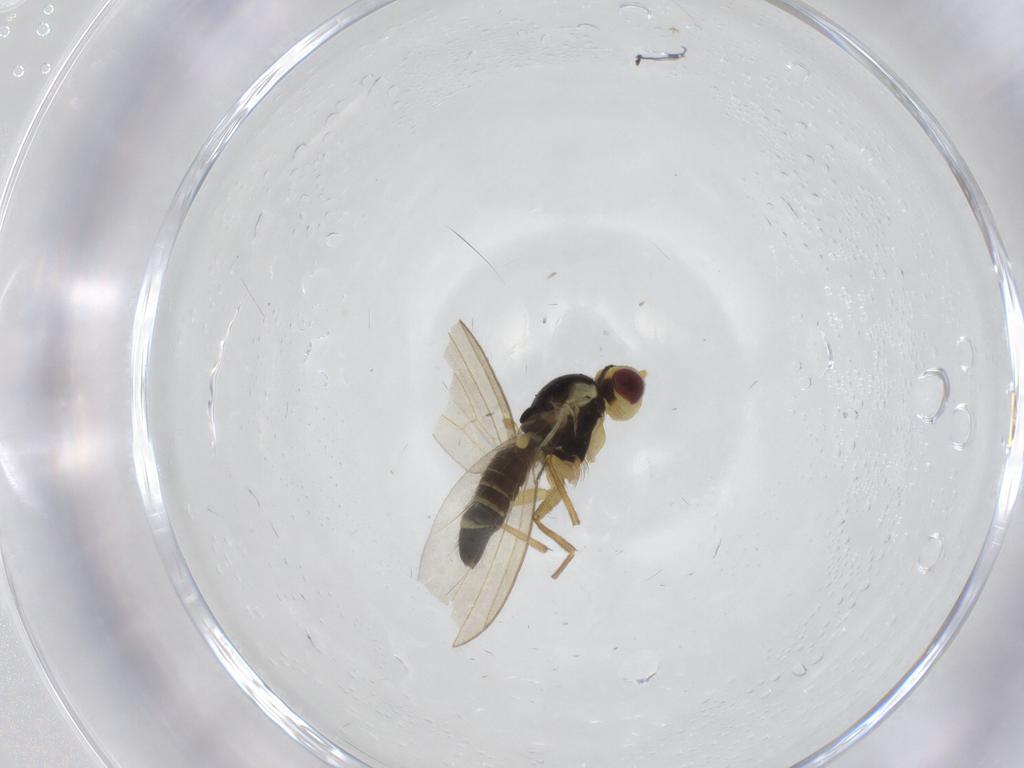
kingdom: Animalia
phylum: Arthropoda
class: Insecta
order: Diptera
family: Agromyzidae
